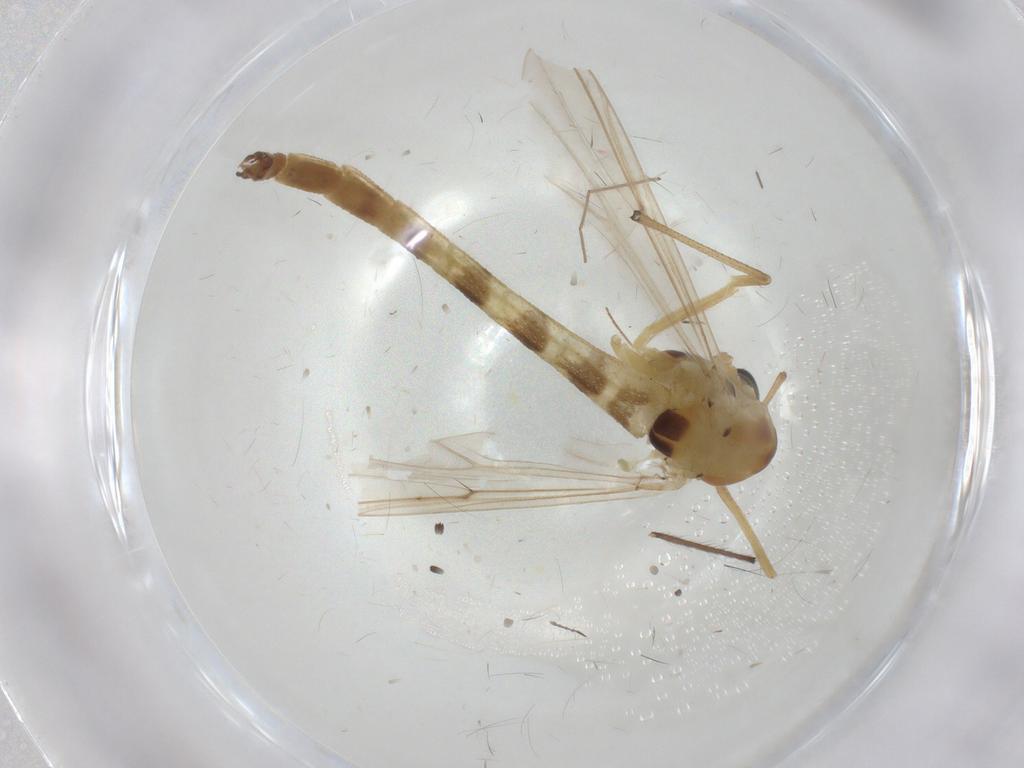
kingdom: Animalia
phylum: Arthropoda
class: Insecta
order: Diptera
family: Chironomidae
